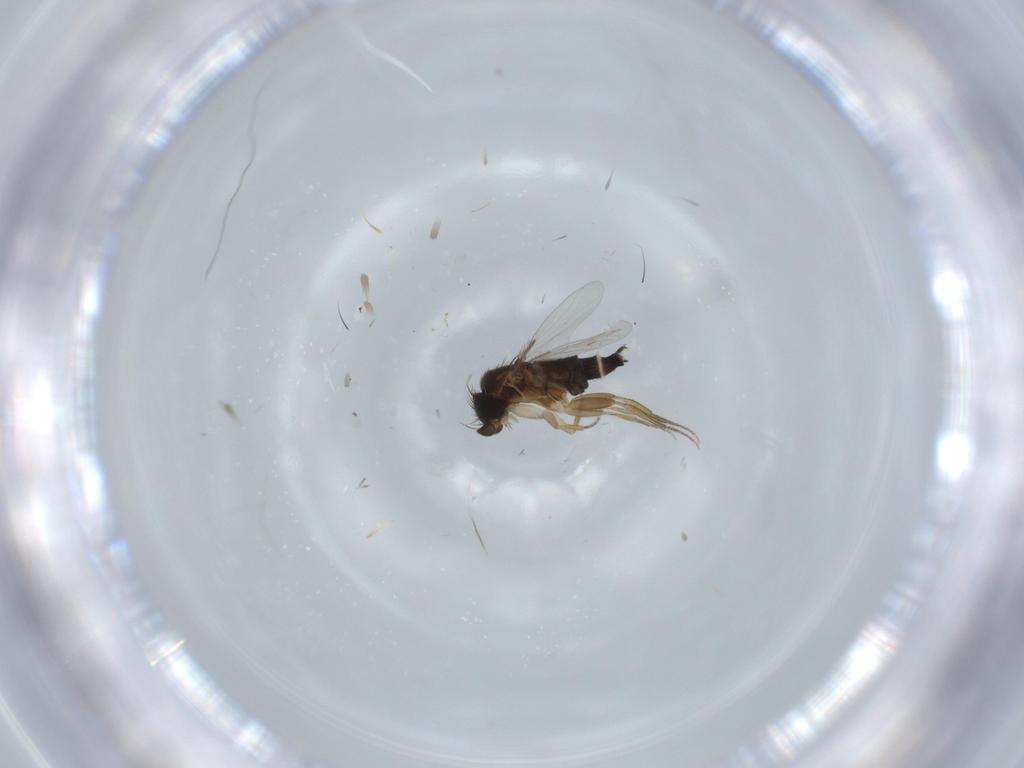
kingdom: Animalia
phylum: Arthropoda
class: Insecta
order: Diptera
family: Phoridae
